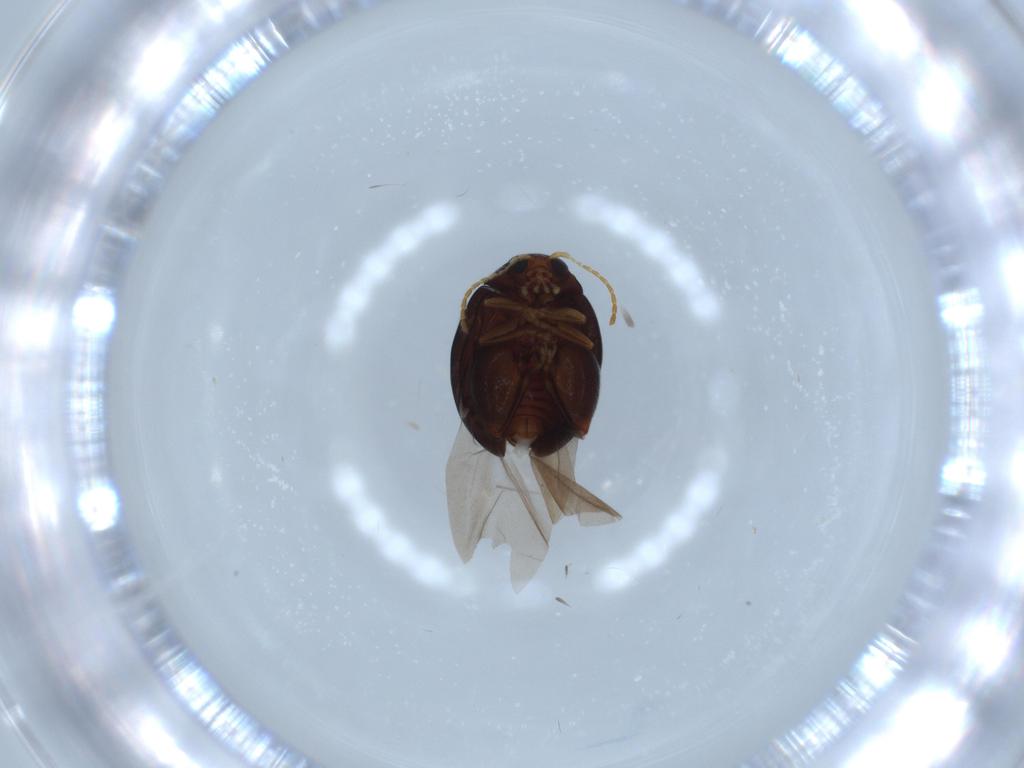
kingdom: Animalia
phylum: Arthropoda
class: Insecta
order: Coleoptera
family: Chrysomelidae
